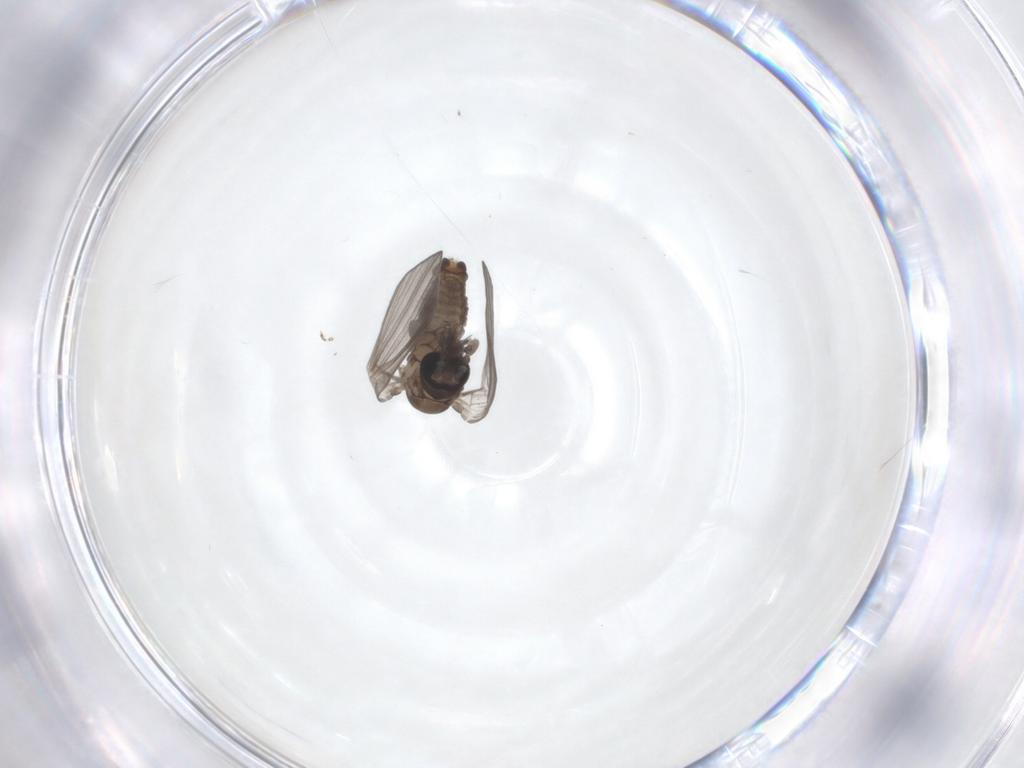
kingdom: Animalia
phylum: Arthropoda
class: Insecta
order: Diptera
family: Psychodidae
